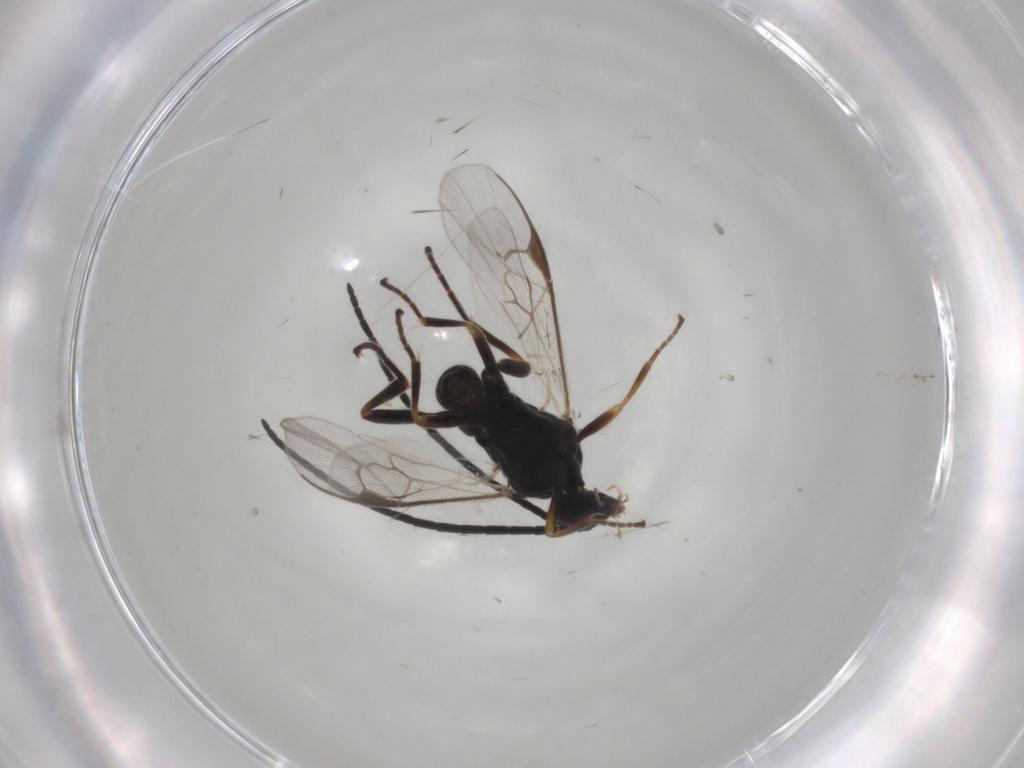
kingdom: Animalia
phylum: Arthropoda
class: Insecta
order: Hymenoptera
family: Braconidae
